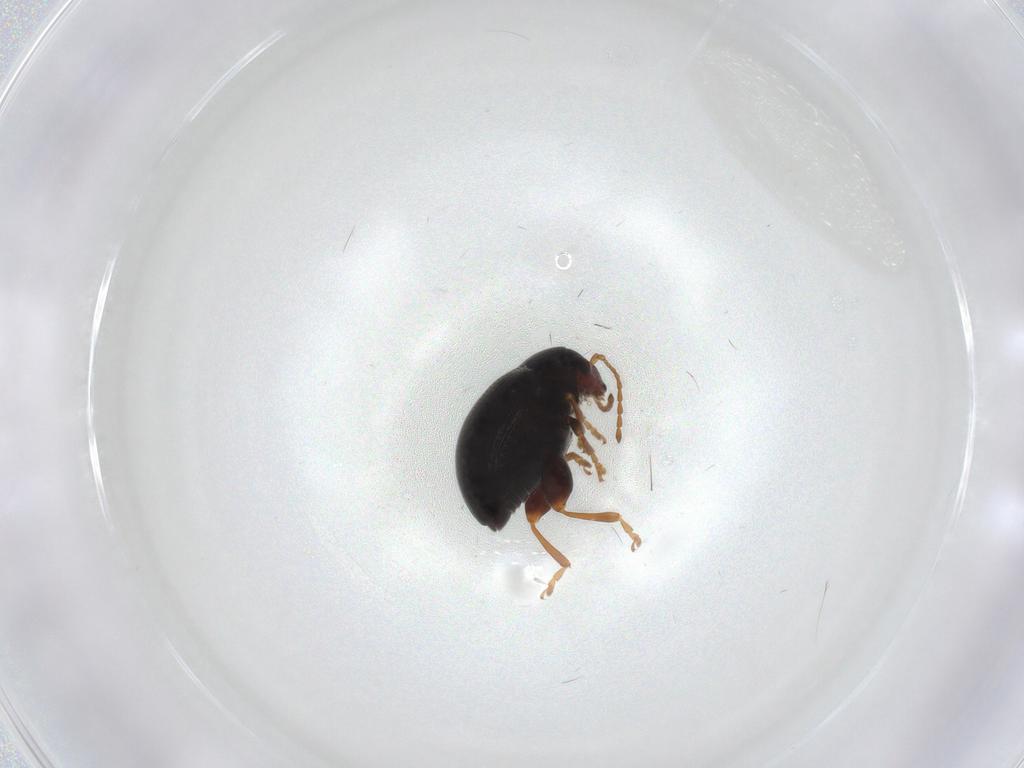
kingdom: Animalia
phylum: Arthropoda
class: Insecta
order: Coleoptera
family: Chrysomelidae
